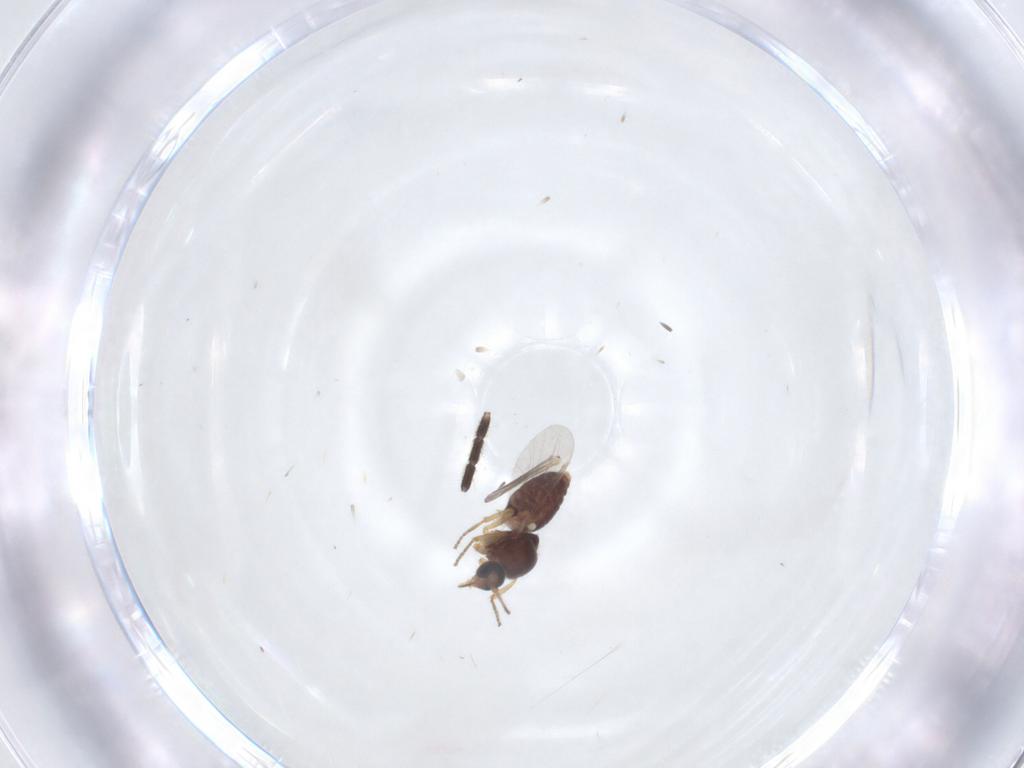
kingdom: Animalia
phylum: Arthropoda
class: Insecta
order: Diptera
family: Ceratopogonidae
